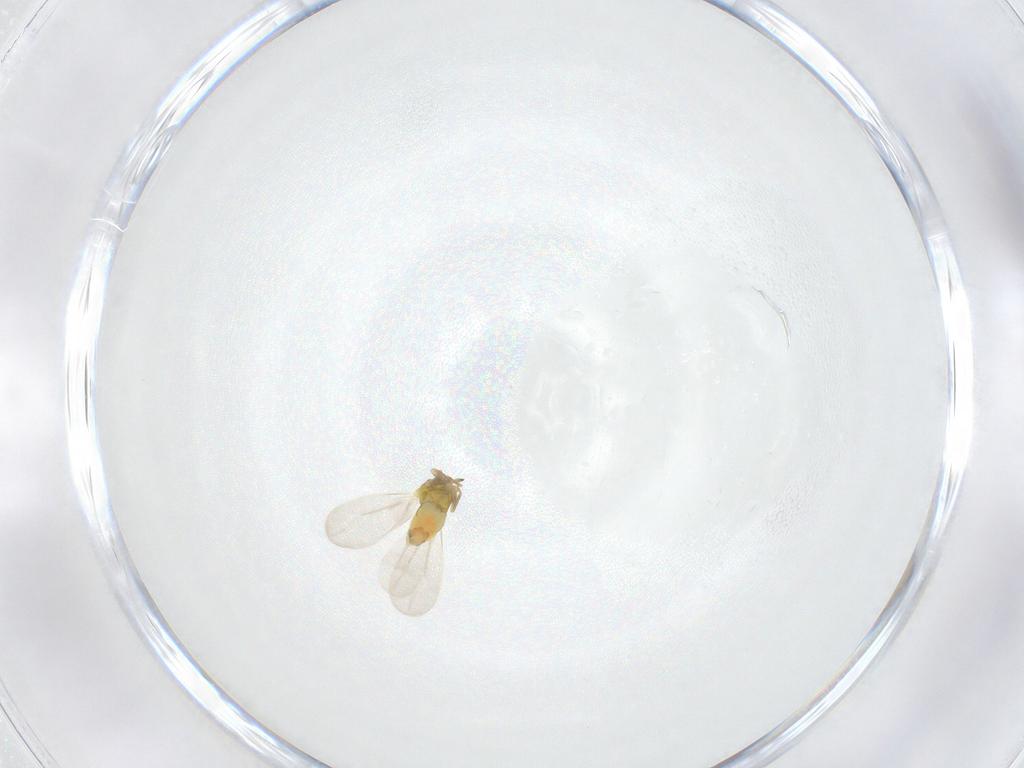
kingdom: Animalia
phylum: Arthropoda
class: Insecta
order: Hemiptera
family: Aleyrodidae
